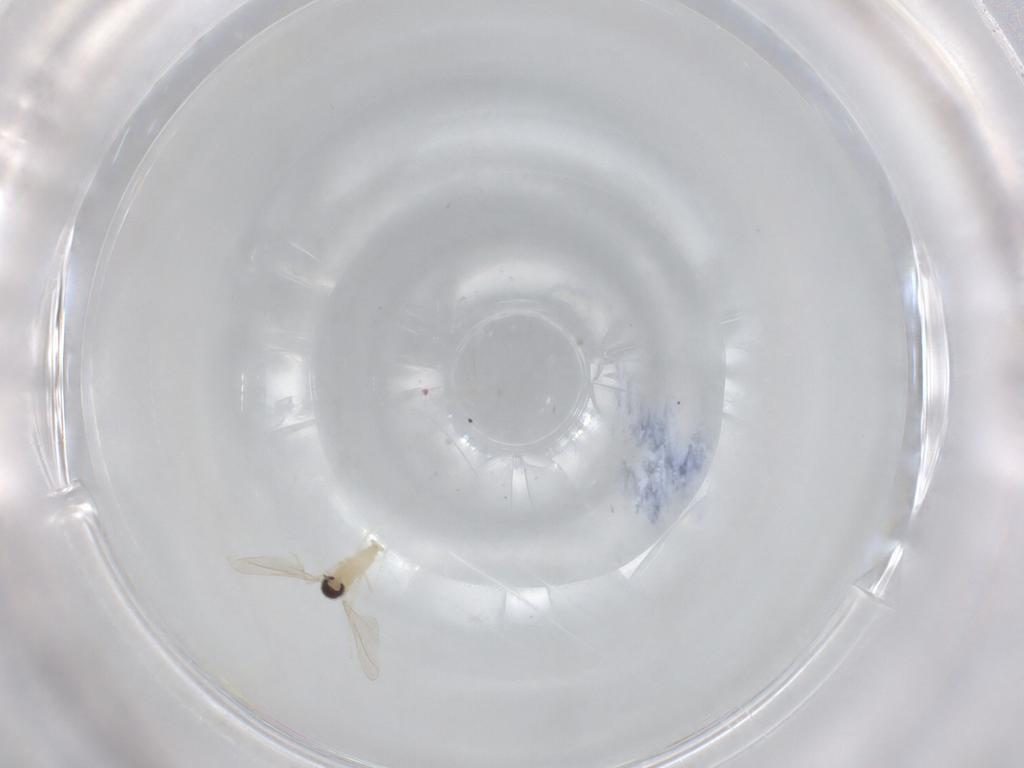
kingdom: Animalia
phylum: Arthropoda
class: Insecta
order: Diptera
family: Cecidomyiidae
